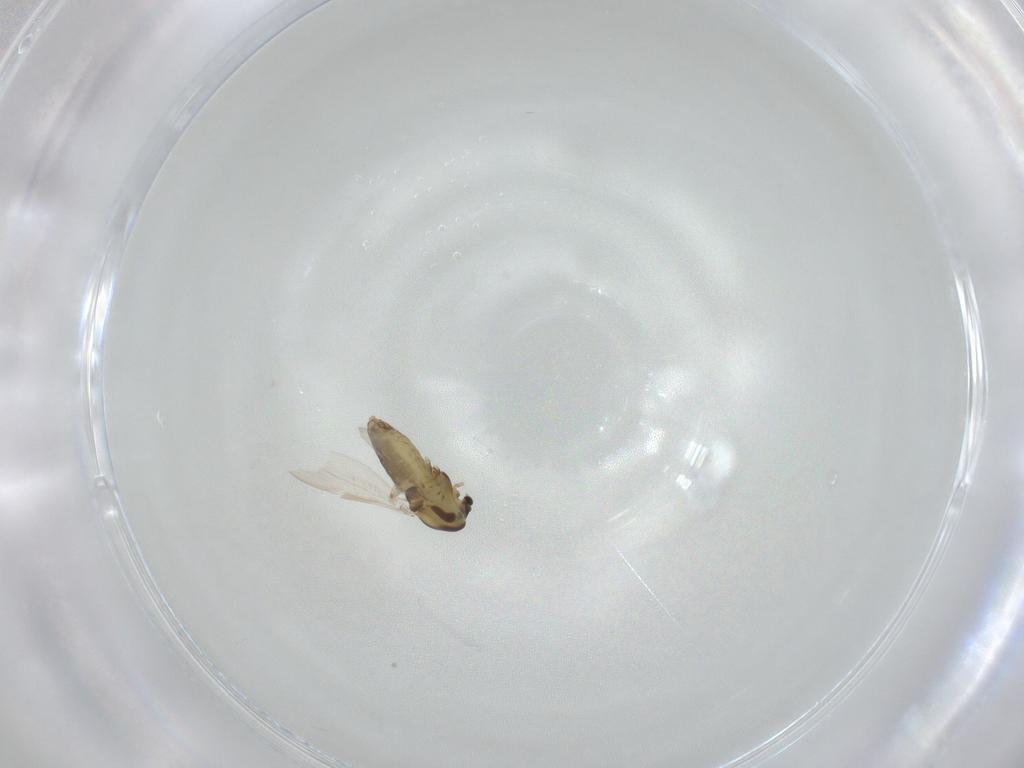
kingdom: Animalia
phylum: Arthropoda
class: Insecta
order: Diptera
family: Chironomidae
